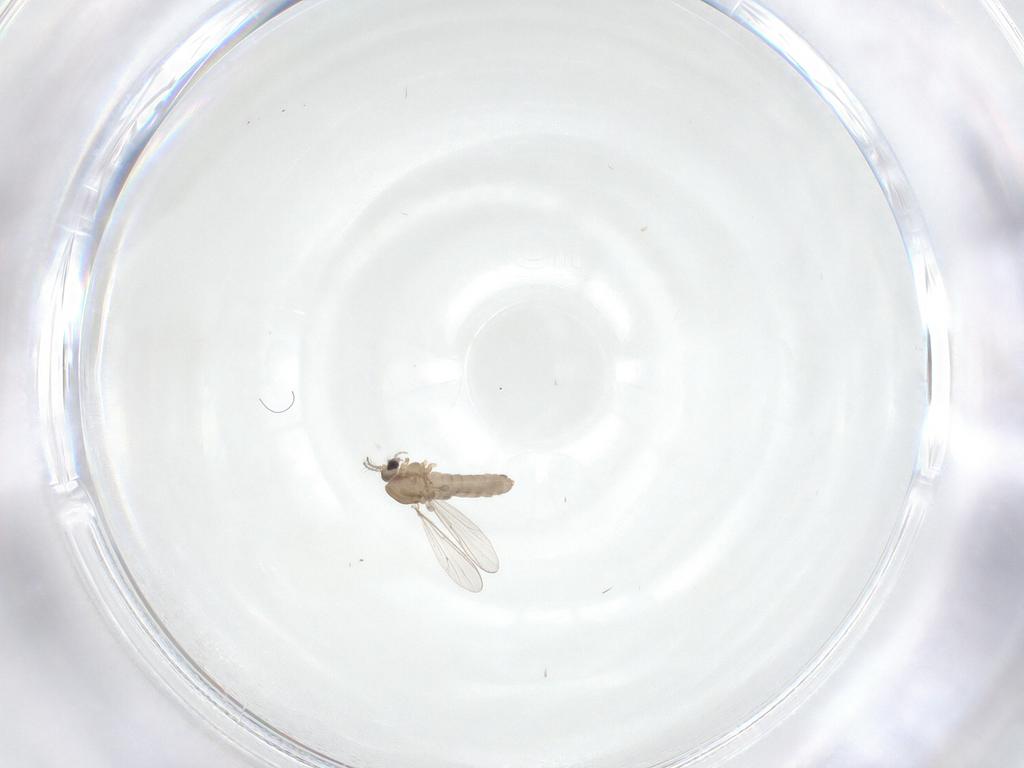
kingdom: Animalia
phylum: Arthropoda
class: Insecta
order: Diptera
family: Chironomidae
